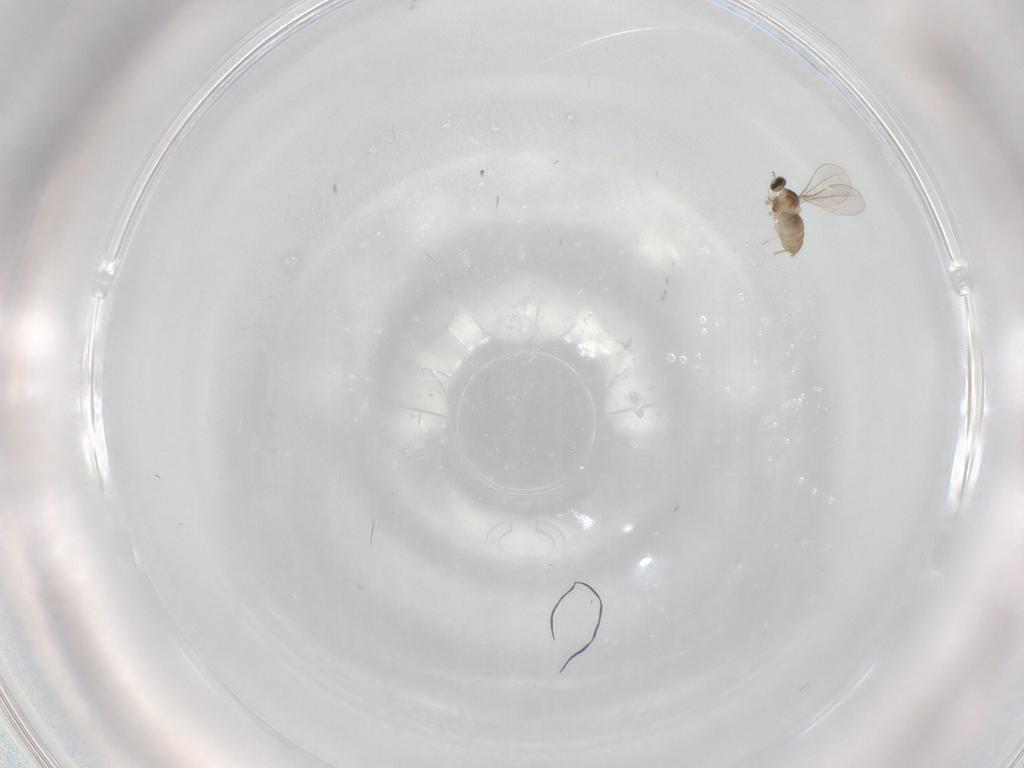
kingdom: Animalia
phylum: Arthropoda
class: Insecta
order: Diptera
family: Cecidomyiidae
